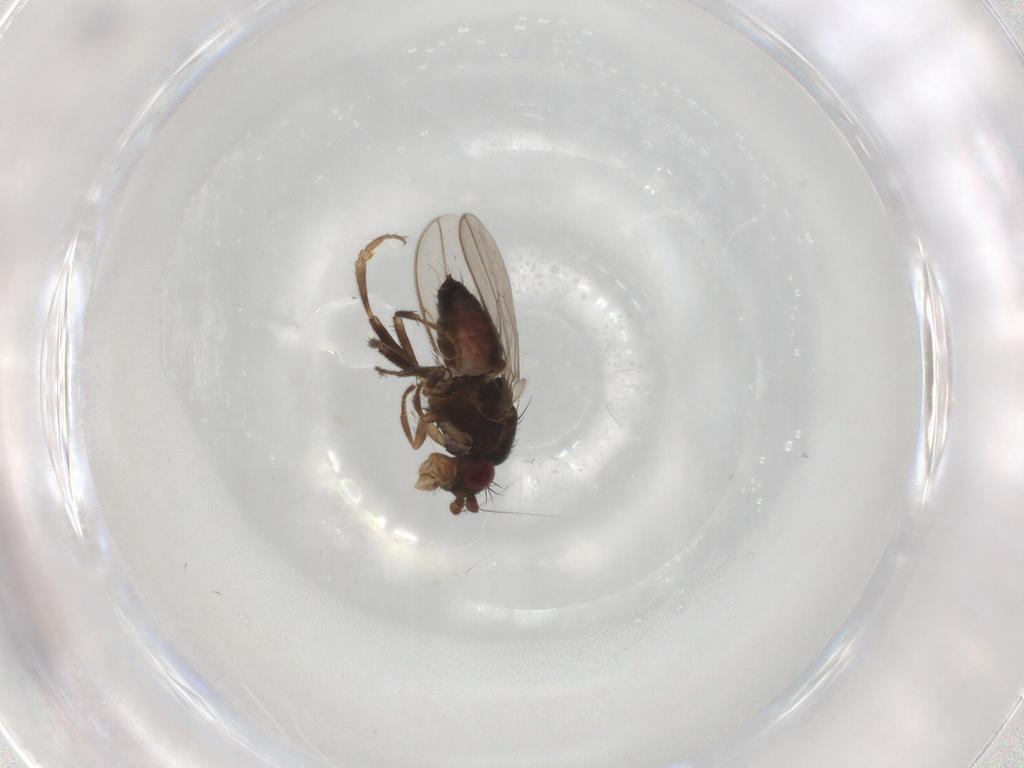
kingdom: Animalia
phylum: Arthropoda
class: Insecta
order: Diptera
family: Sphaeroceridae
